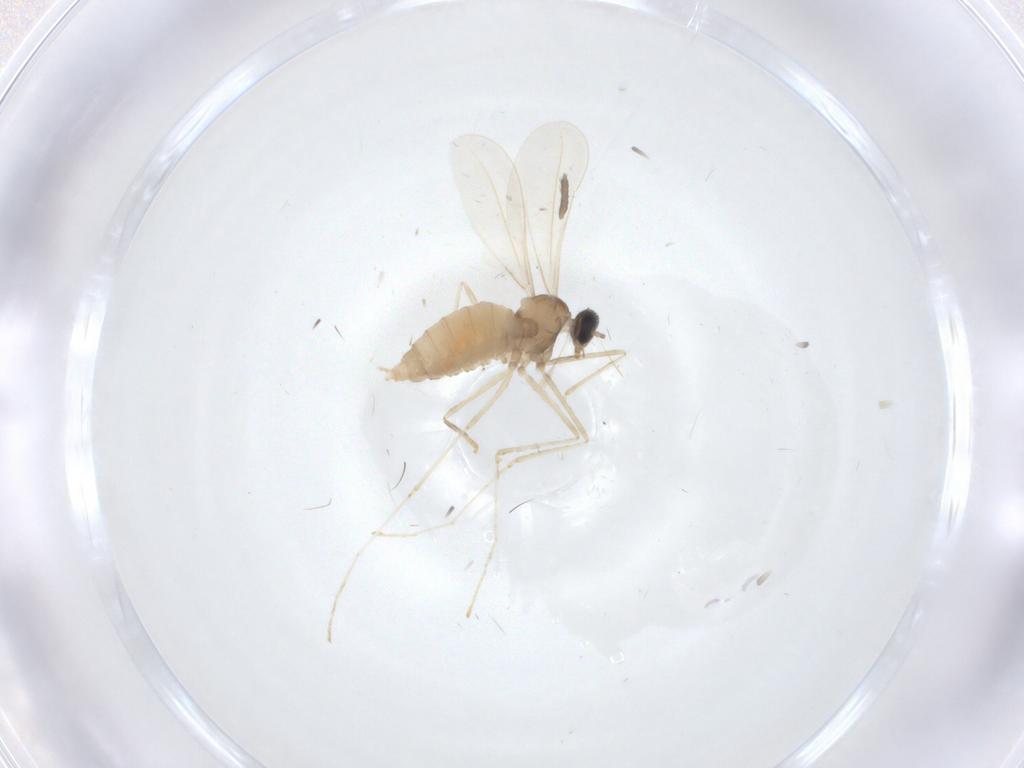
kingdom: Animalia
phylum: Arthropoda
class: Insecta
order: Diptera
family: Cecidomyiidae
